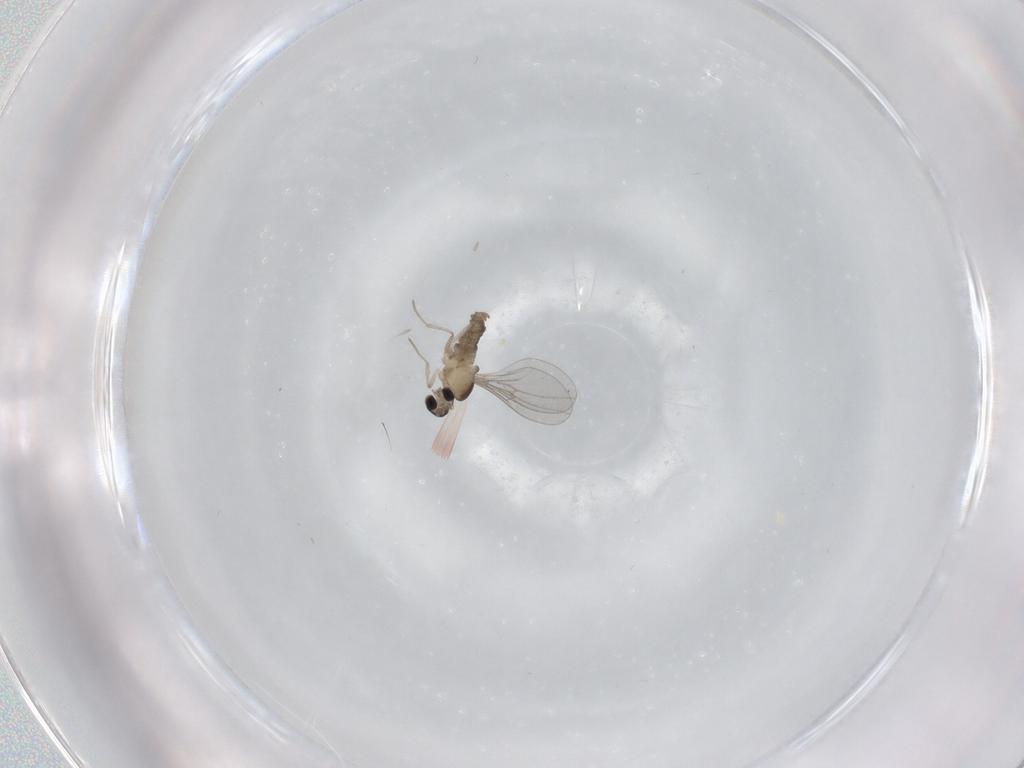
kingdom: Animalia
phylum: Arthropoda
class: Insecta
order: Diptera
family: Cecidomyiidae
